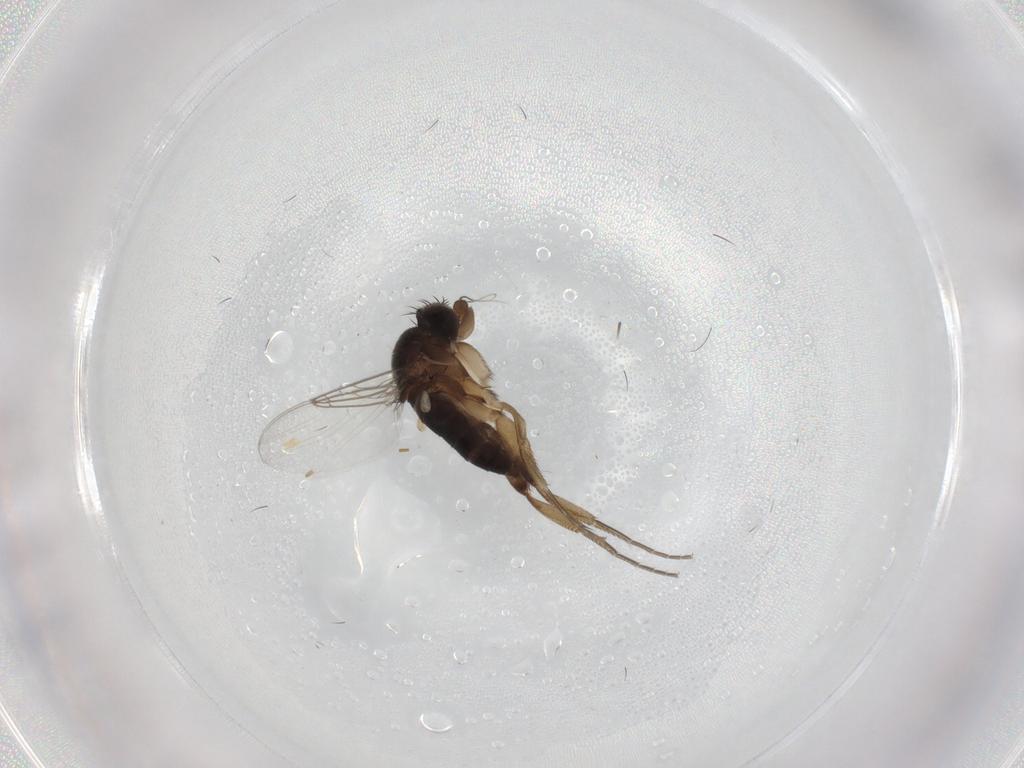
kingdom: Animalia
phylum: Arthropoda
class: Insecta
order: Diptera
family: Phoridae
